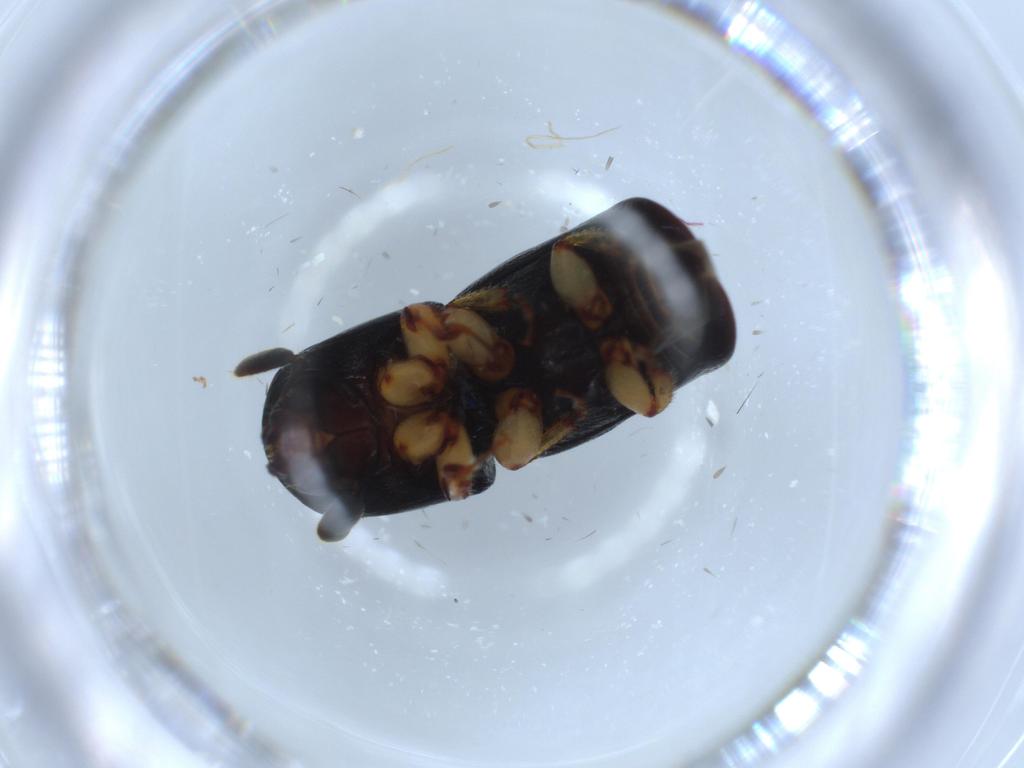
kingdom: Animalia
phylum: Arthropoda
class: Insecta
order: Coleoptera
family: Curculionidae
